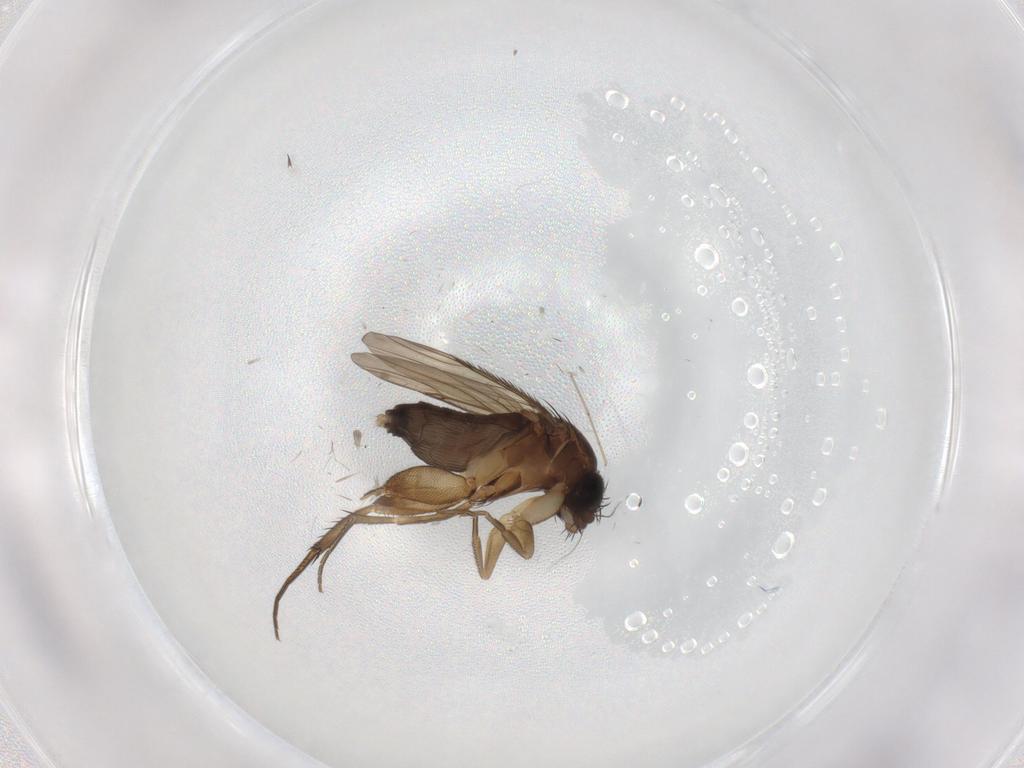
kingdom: Animalia
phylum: Arthropoda
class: Insecta
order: Diptera
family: Phoridae
